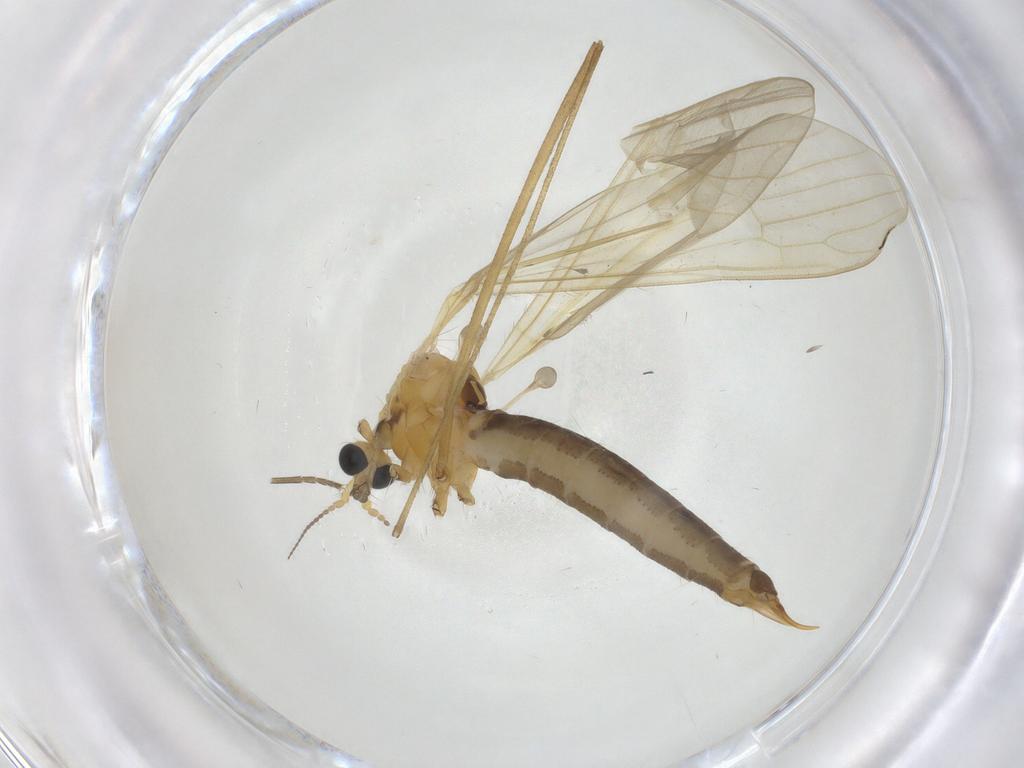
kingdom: Animalia
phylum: Arthropoda
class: Insecta
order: Diptera
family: Limoniidae
